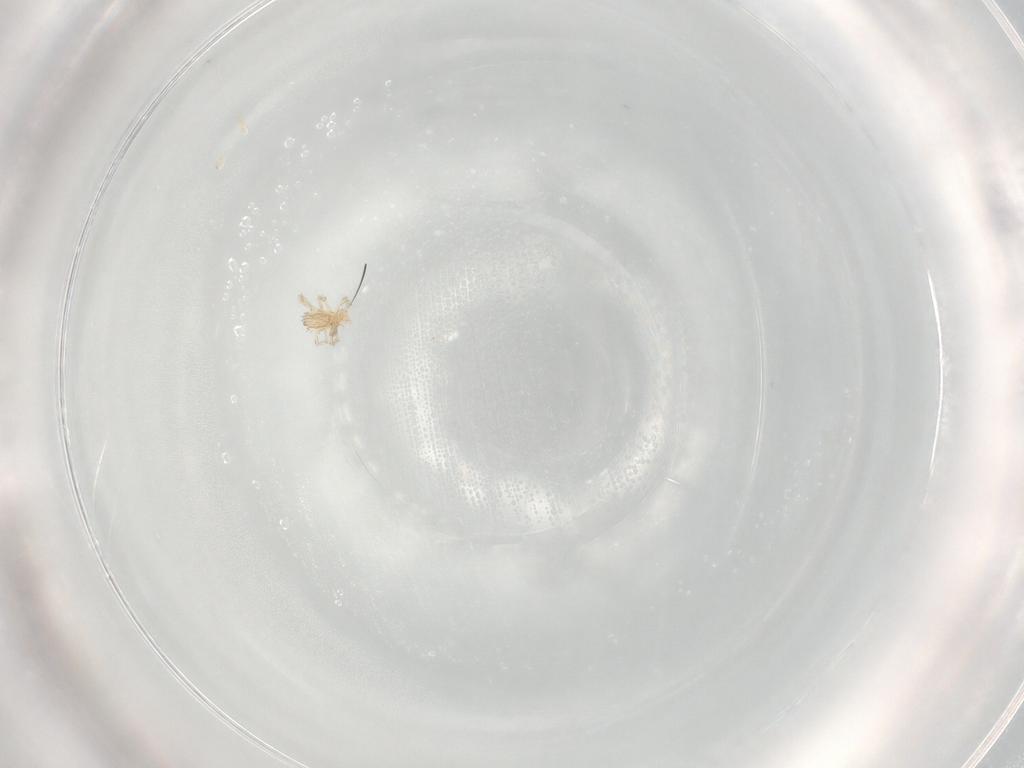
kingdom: Animalia
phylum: Arthropoda
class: Arachnida
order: Trombidiformes
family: Erythraeidae
